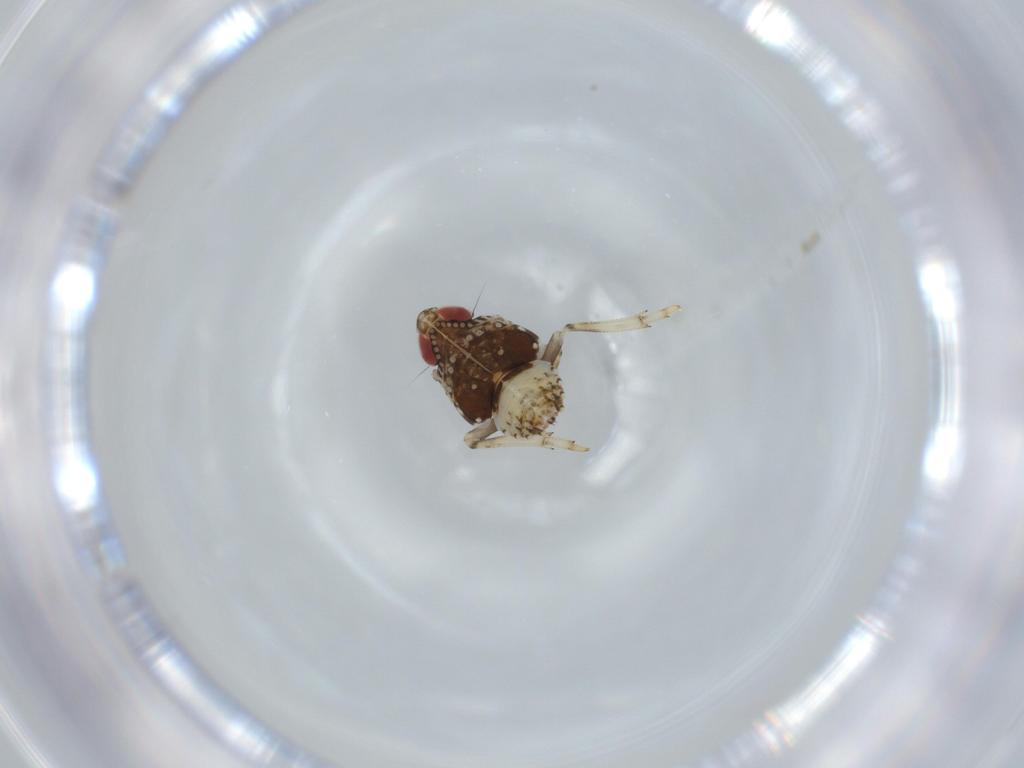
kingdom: Animalia
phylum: Arthropoda
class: Insecta
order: Hemiptera
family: Issidae
